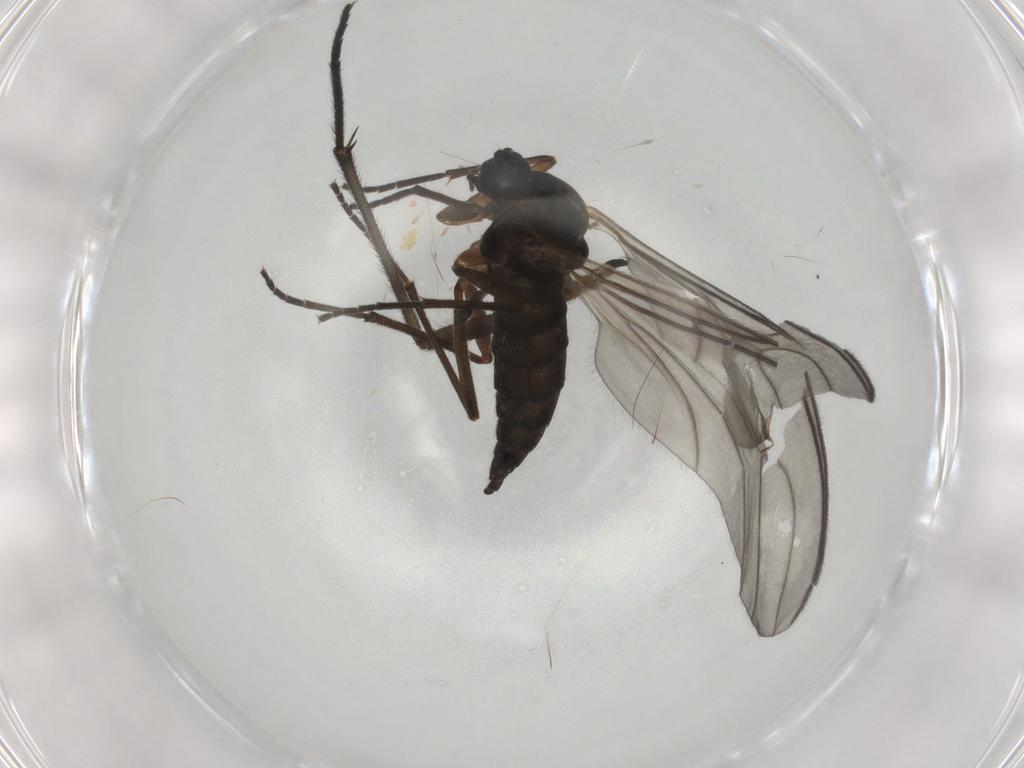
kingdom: Animalia
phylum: Arthropoda
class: Insecta
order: Diptera
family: Sciaridae
